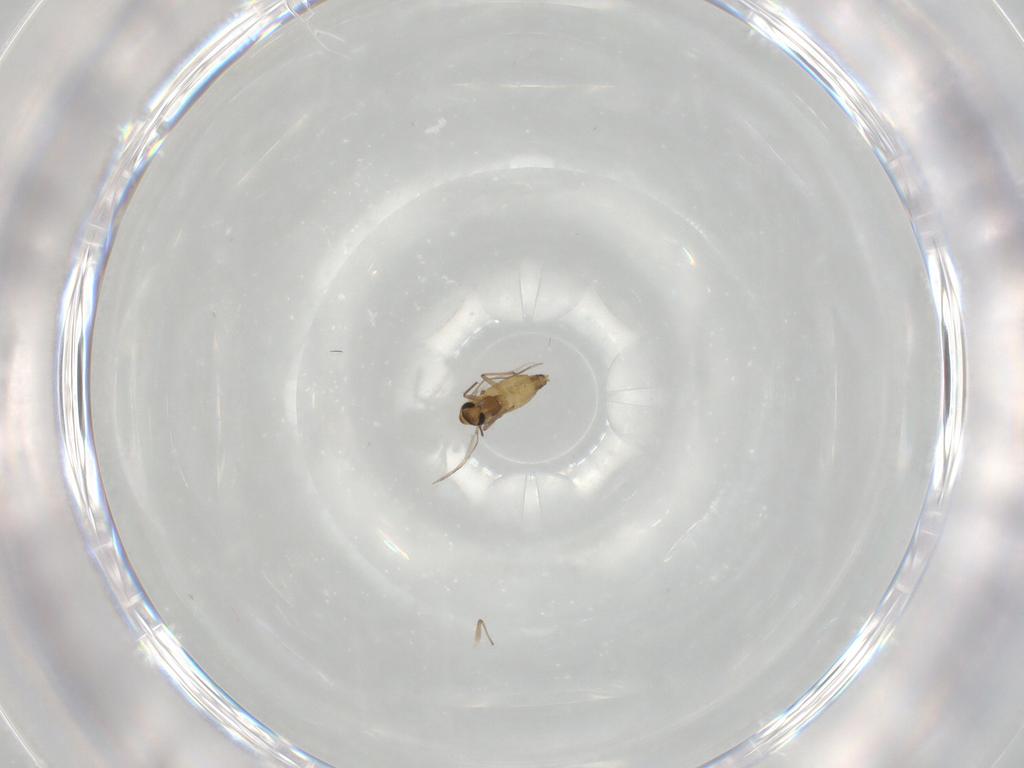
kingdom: Animalia
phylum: Arthropoda
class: Insecta
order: Diptera
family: Chironomidae
